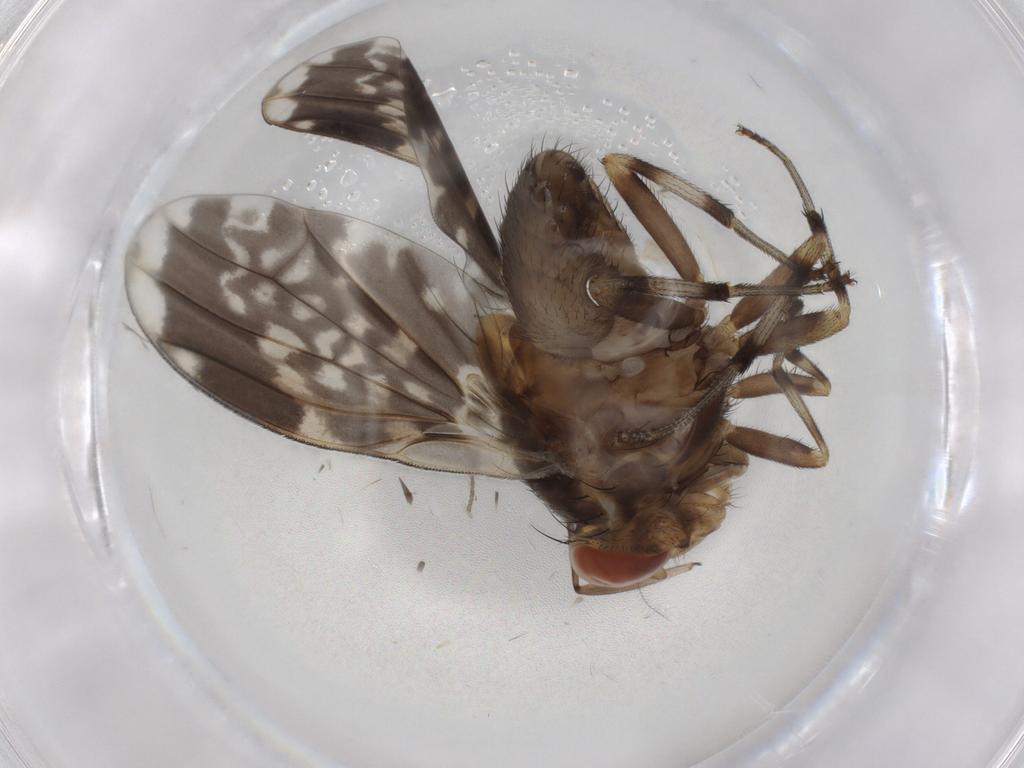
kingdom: Animalia
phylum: Arthropoda
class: Insecta
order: Diptera
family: Sciaridae
